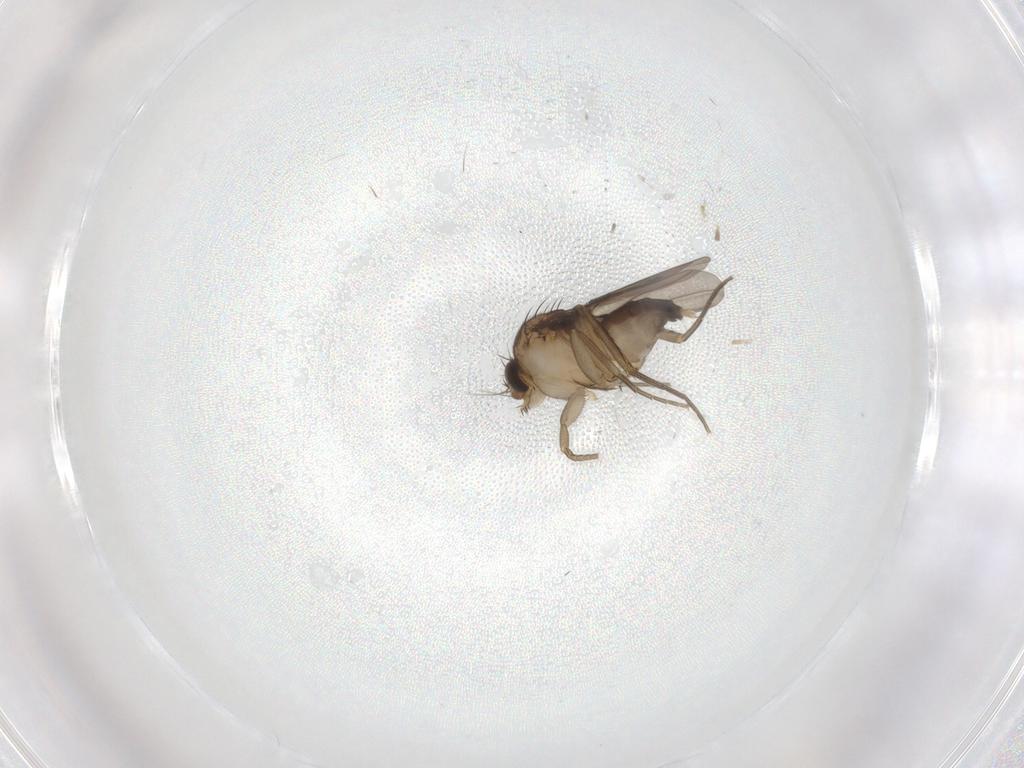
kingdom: Animalia
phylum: Arthropoda
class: Insecta
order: Diptera
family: Phoridae
